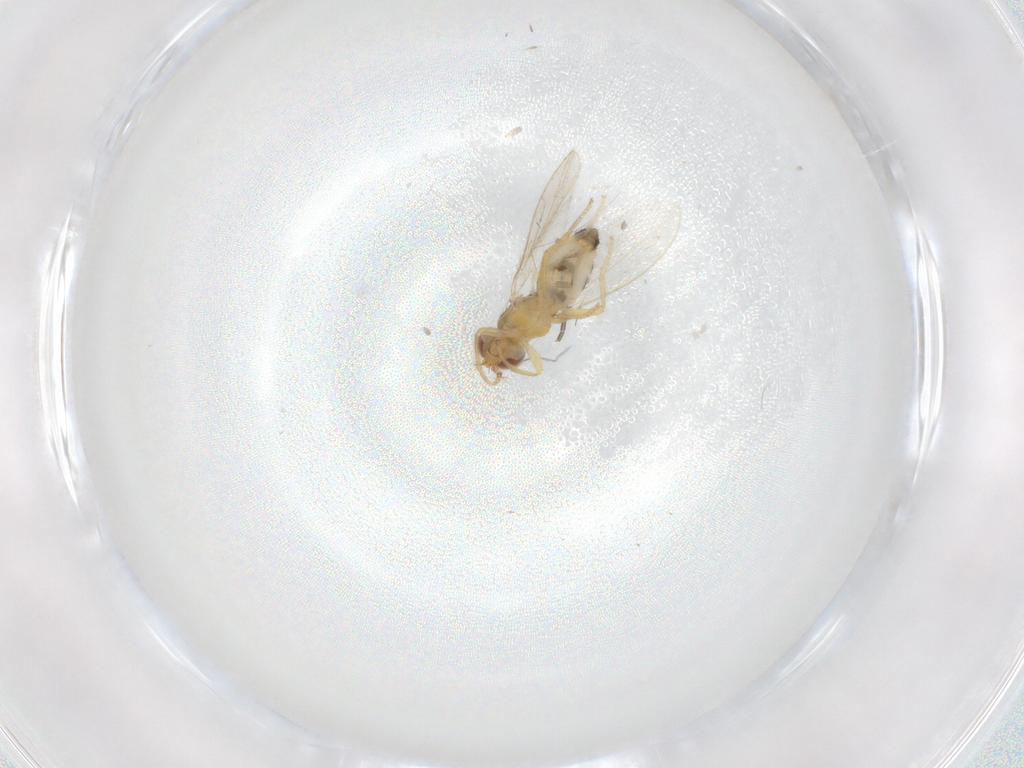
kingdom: Animalia
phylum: Arthropoda
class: Insecta
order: Diptera
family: Periscelididae
